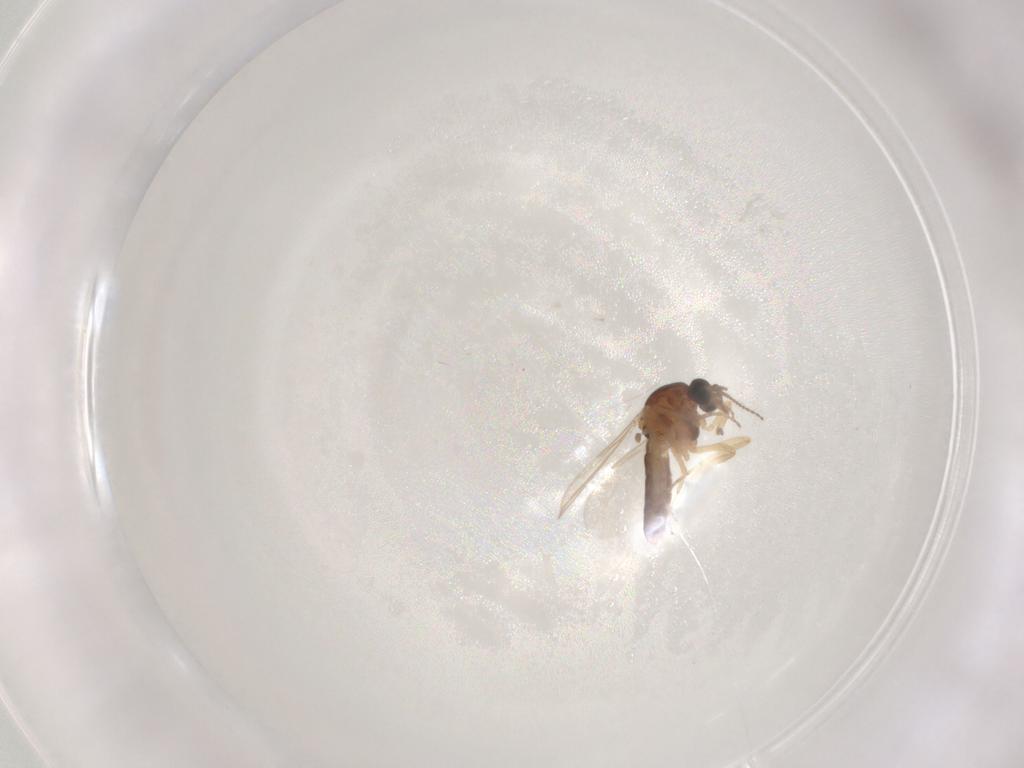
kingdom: Animalia
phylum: Arthropoda
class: Insecta
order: Diptera
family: Ceratopogonidae
